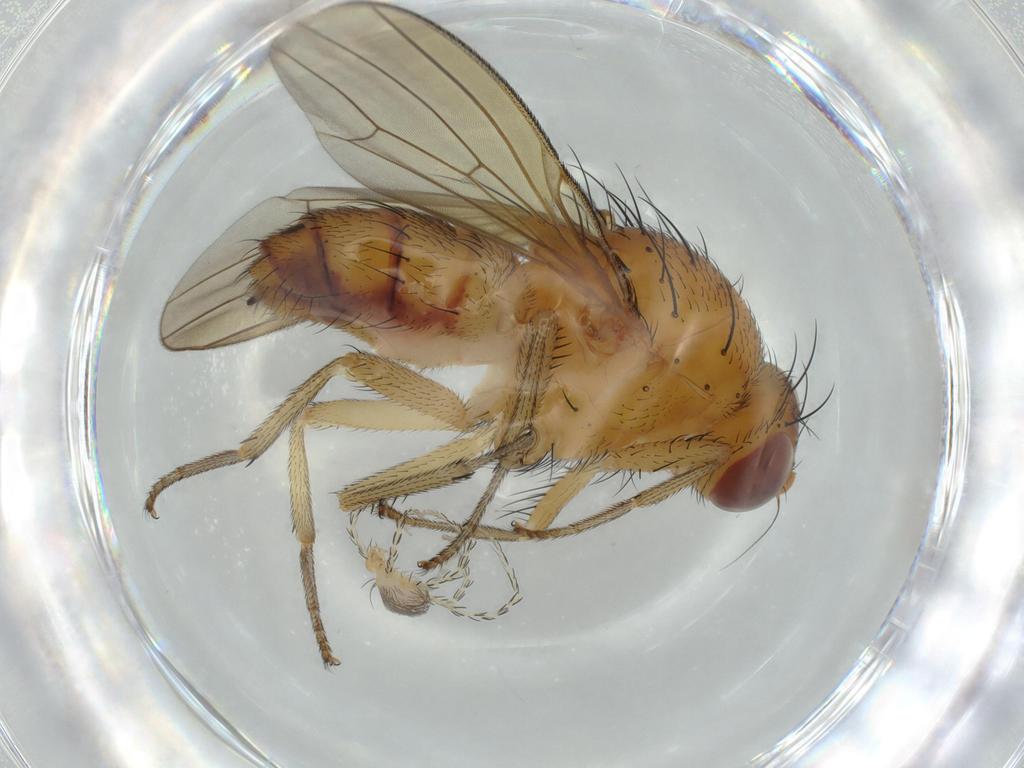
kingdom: Animalia
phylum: Arthropoda
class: Arachnida
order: Trombidiformes
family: Erythraeidae
